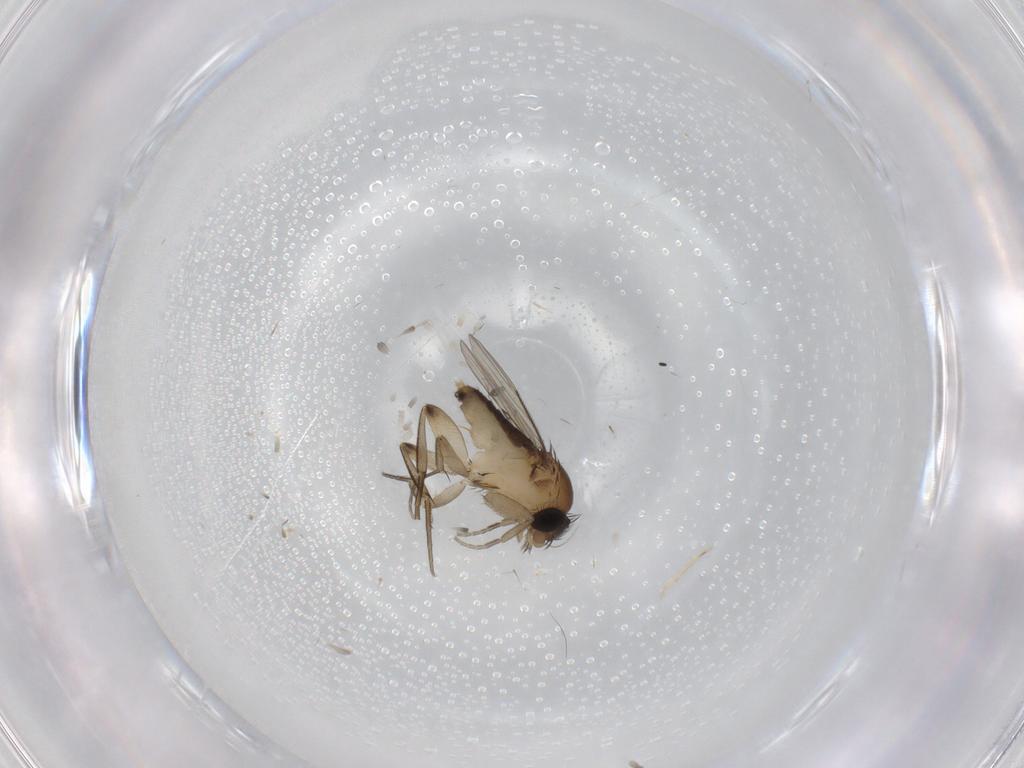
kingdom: Animalia
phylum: Arthropoda
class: Insecta
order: Diptera
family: Phoridae
